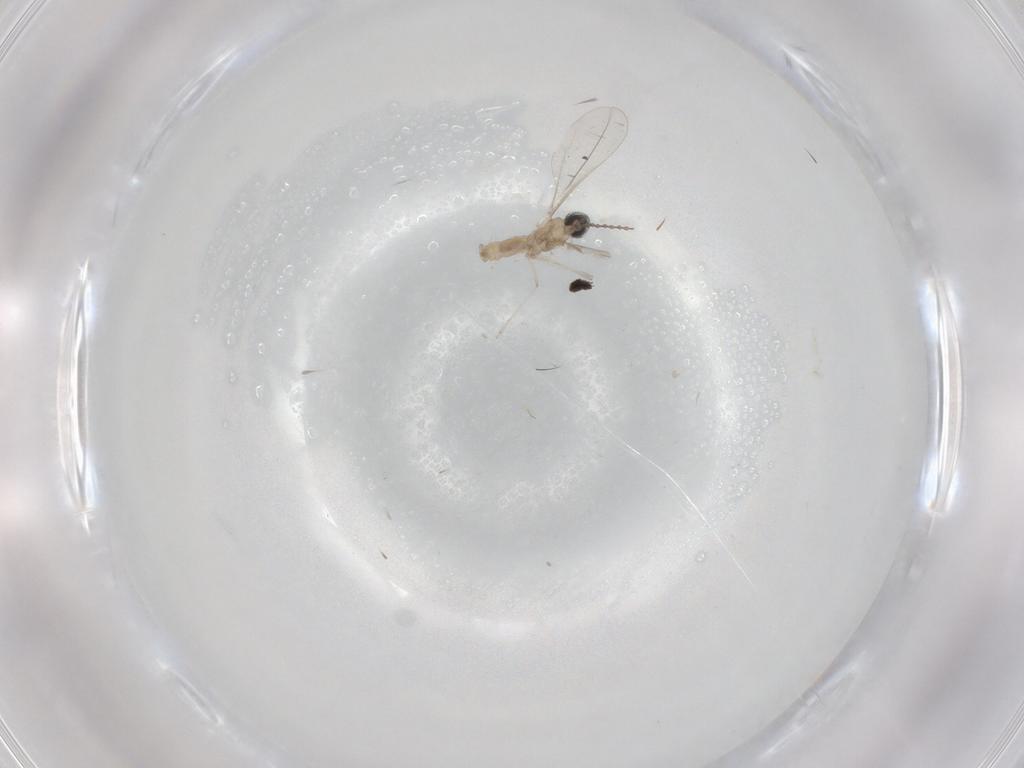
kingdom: Animalia
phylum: Arthropoda
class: Insecta
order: Diptera
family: Cecidomyiidae
